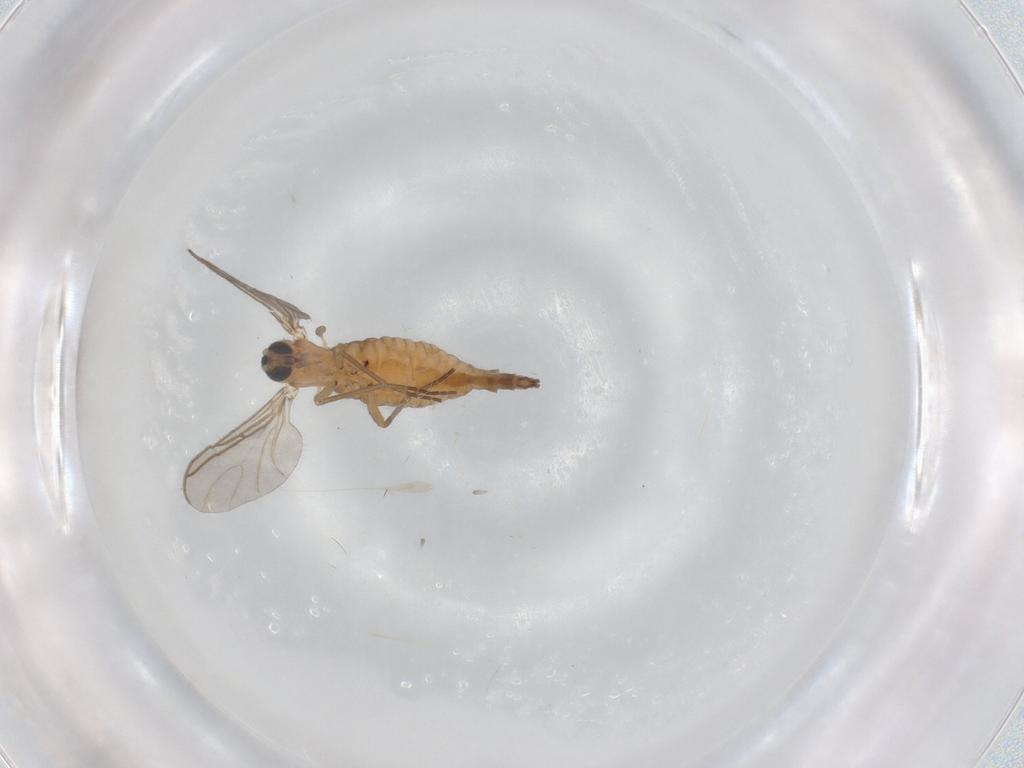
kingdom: Animalia
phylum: Arthropoda
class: Insecta
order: Diptera
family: Sciaridae
